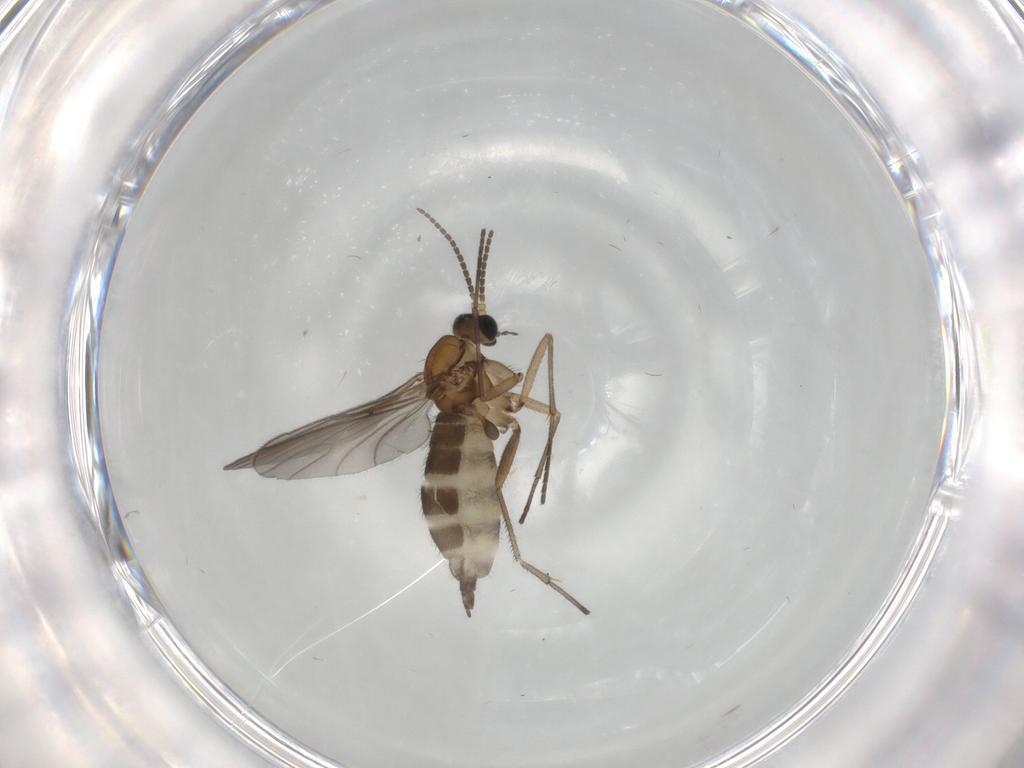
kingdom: Animalia
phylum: Arthropoda
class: Insecta
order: Diptera
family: Sciaridae
